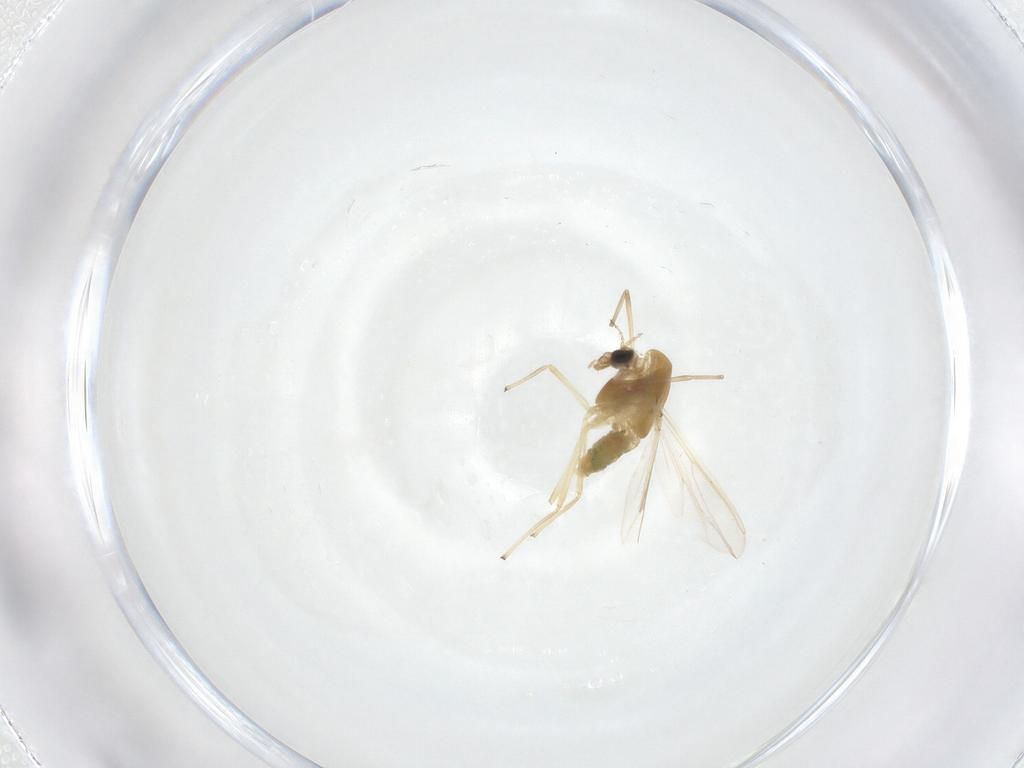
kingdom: Animalia
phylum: Arthropoda
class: Insecta
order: Diptera
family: Chironomidae
